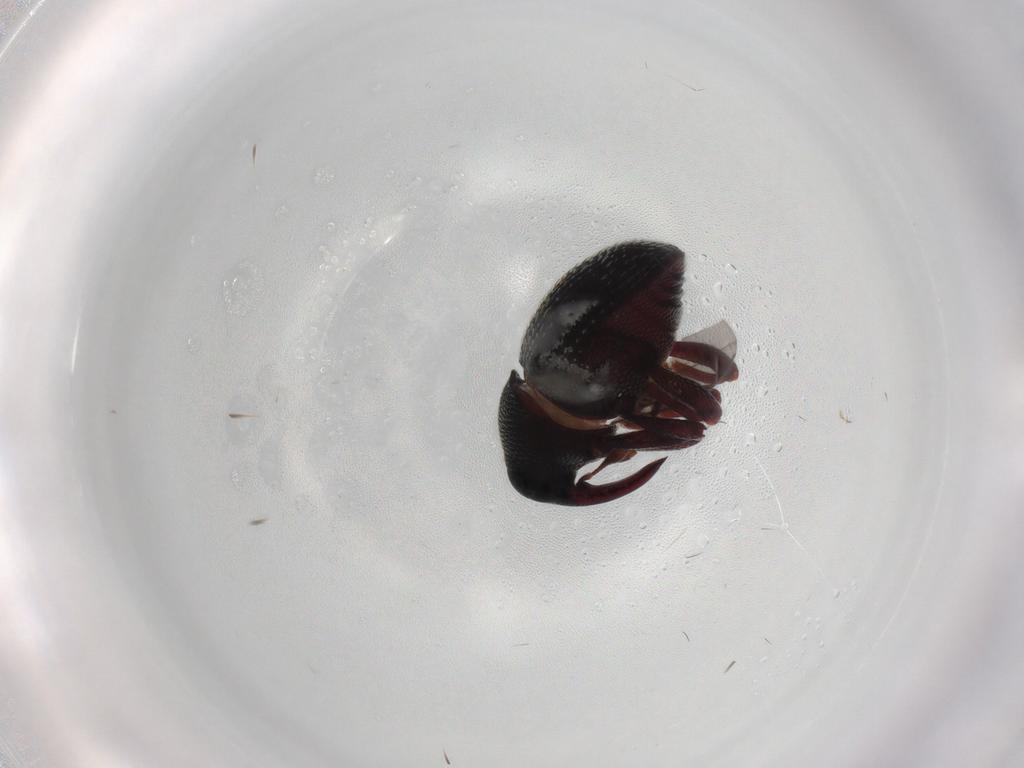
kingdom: Animalia
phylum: Arthropoda
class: Insecta
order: Coleoptera
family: Curculionidae
